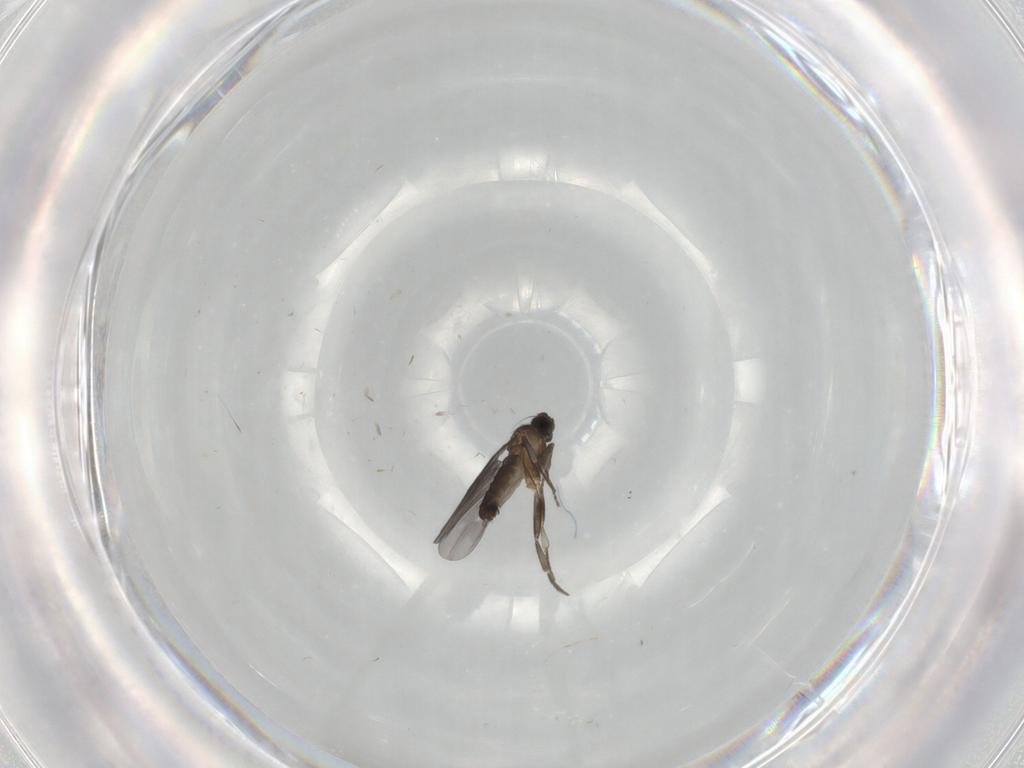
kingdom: Animalia
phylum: Arthropoda
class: Insecta
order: Diptera
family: Phoridae
